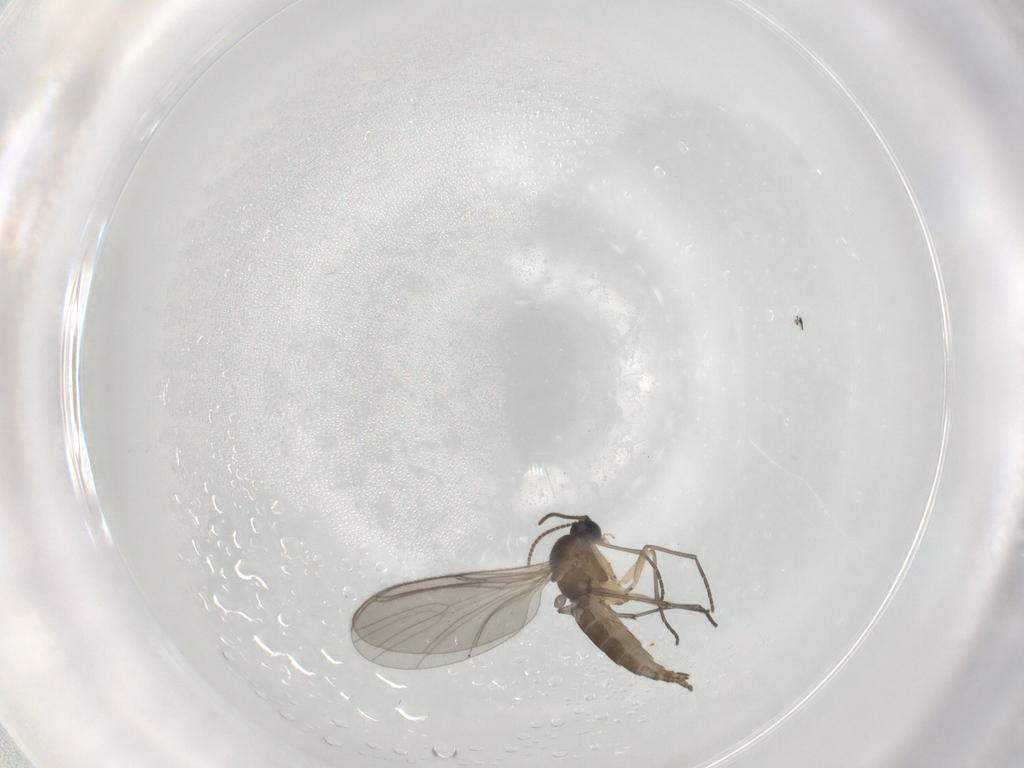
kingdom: Animalia
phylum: Arthropoda
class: Insecta
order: Diptera
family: Sciaridae
